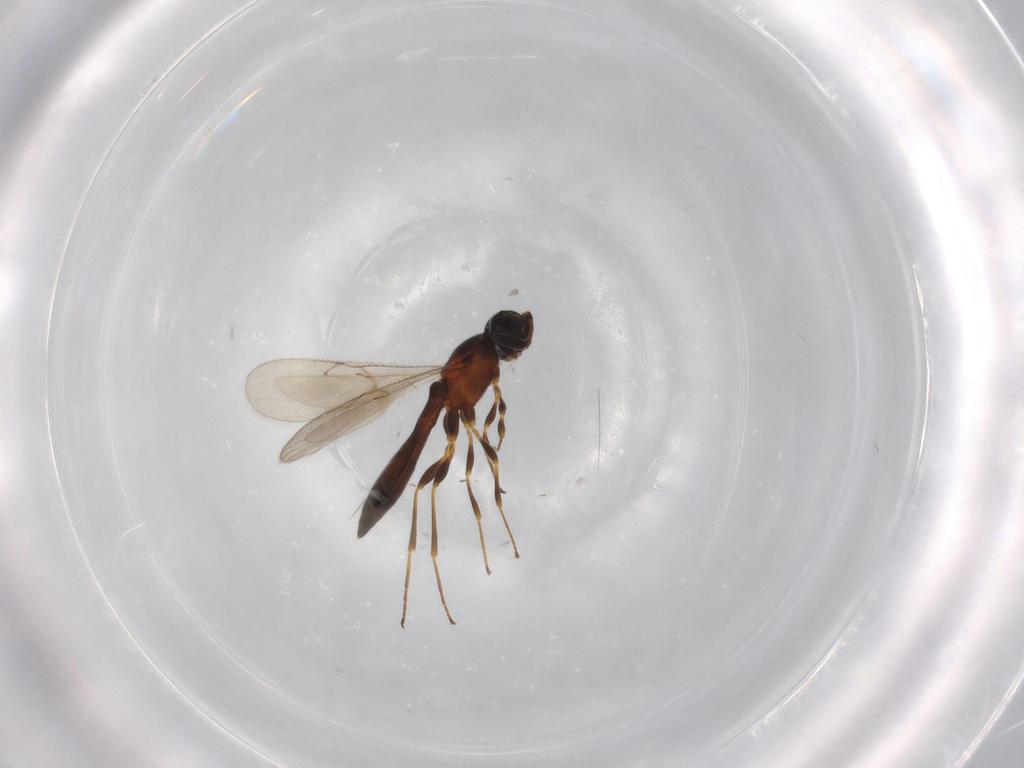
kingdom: Animalia
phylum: Arthropoda
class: Insecta
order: Hymenoptera
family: Scelionidae
